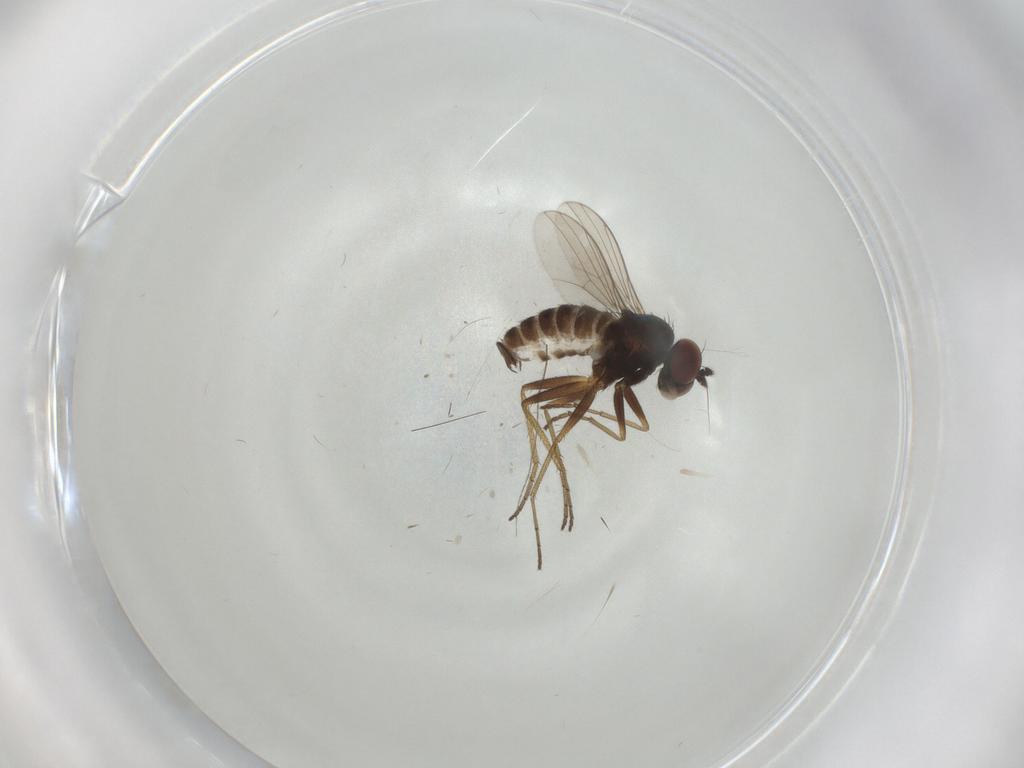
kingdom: Animalia
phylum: Arthropoda
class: Insecta
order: Diptera
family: Dolichopodidae
